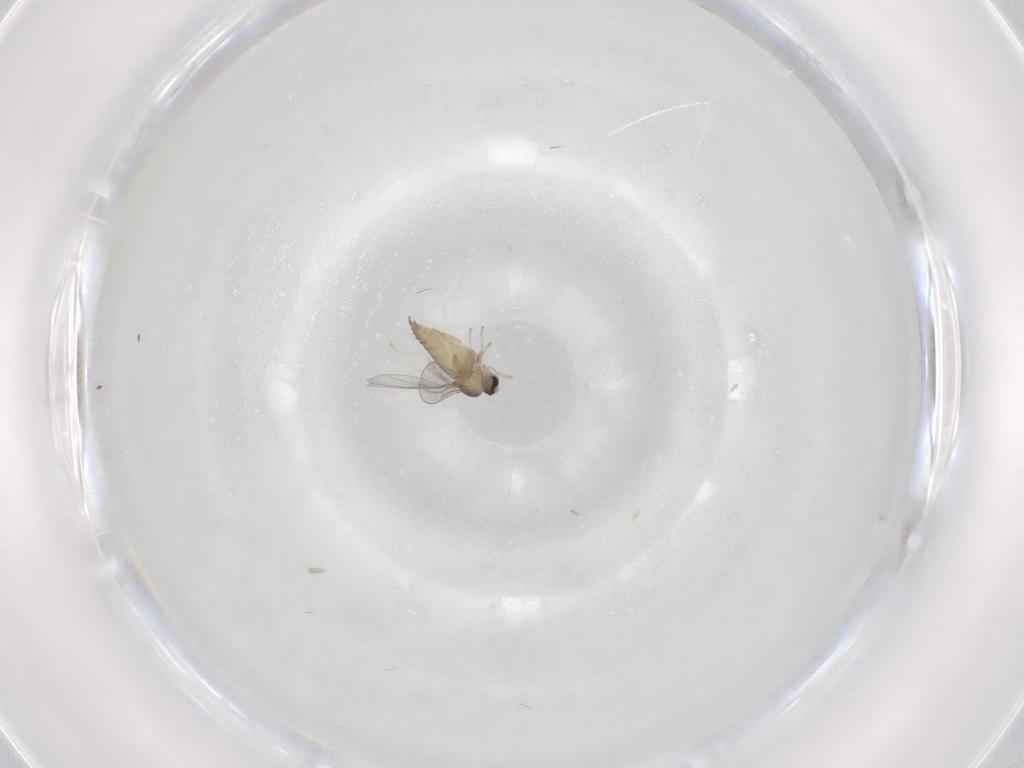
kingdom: Animalia
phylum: Arthropoda
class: Insecta
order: Diptera
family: Cecidomyiidae
